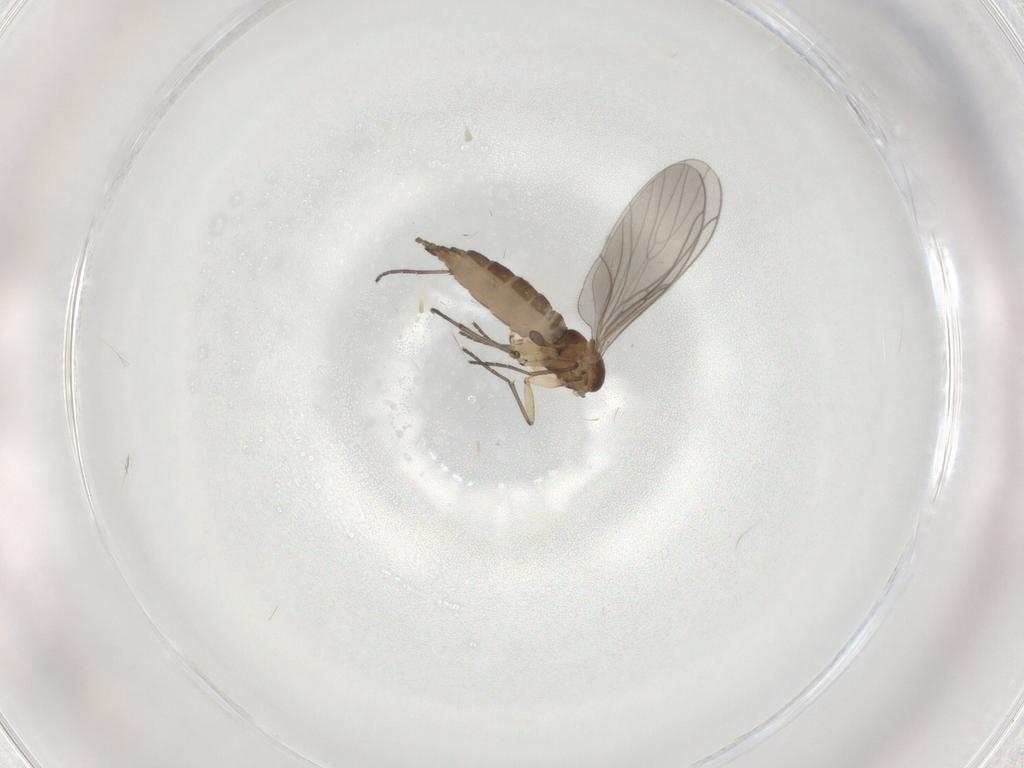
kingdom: Animalia
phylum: Arthropoda
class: Insecta
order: Diptera
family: Sciaridae
